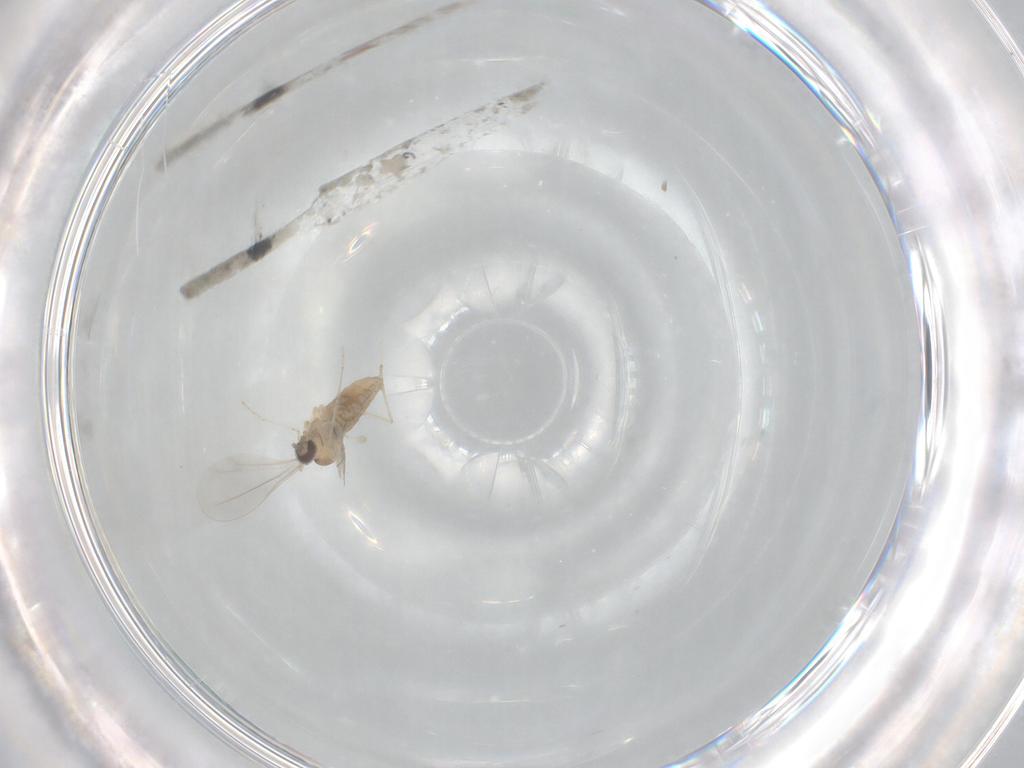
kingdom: Animalia
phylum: Arthropoda
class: Insecta
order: Diptera
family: Cecidomyiidae
